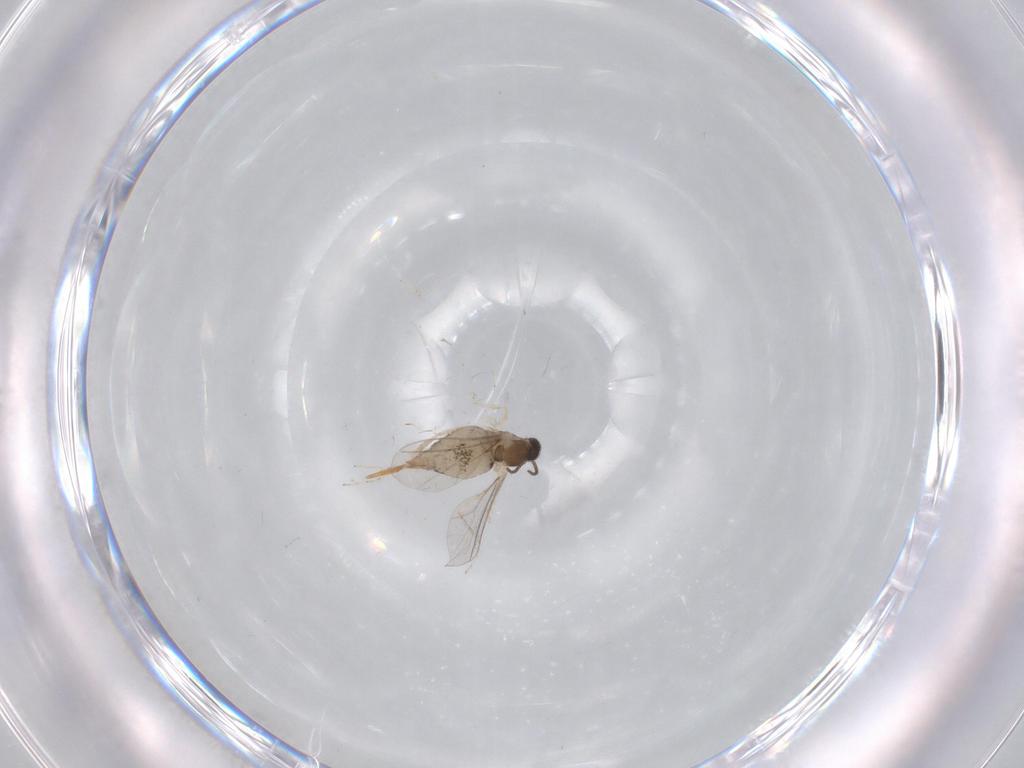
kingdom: Animalia
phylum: Arthropoda
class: Insecta
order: Diptera
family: Cecidomyiidae
